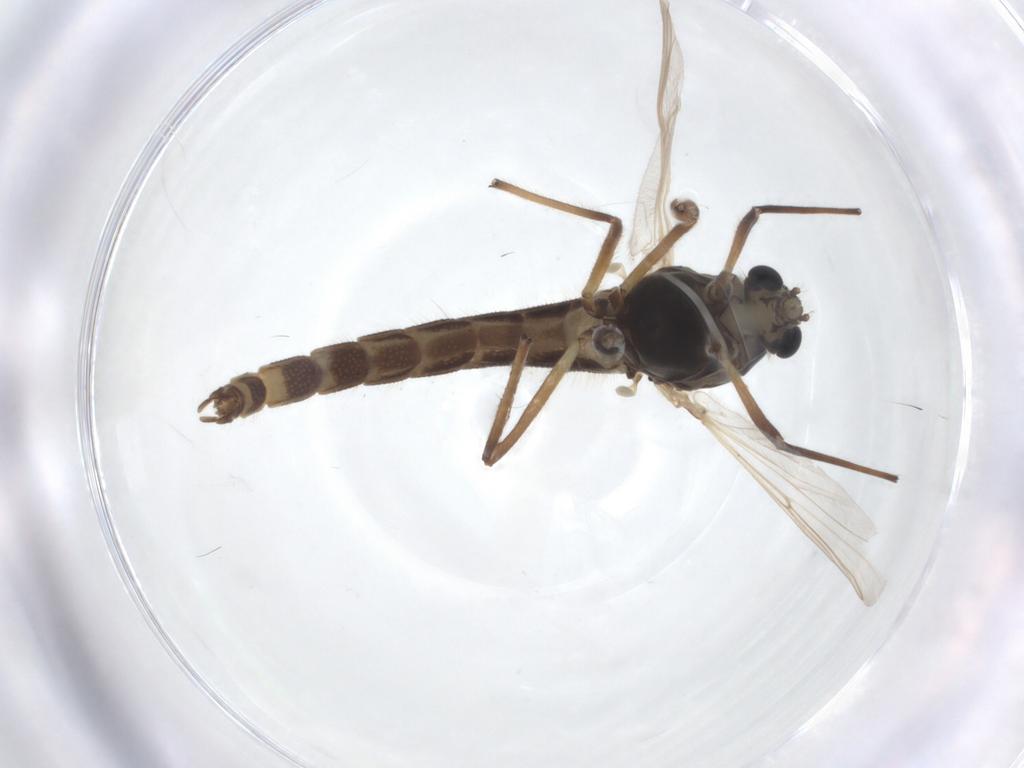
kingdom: Animalia
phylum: Arthropoda
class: Insecta
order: Diptera
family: Chironomidae
